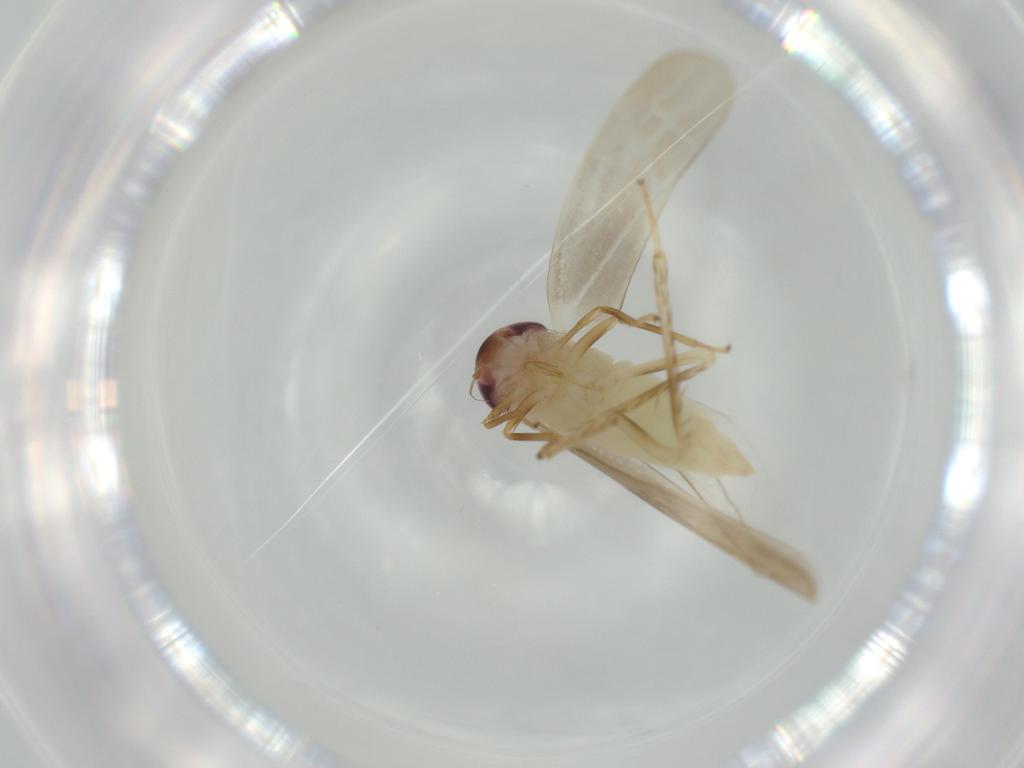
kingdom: Animalia
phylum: Arthropoda
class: Insecta
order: Hemiptera
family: Cicadellidae
